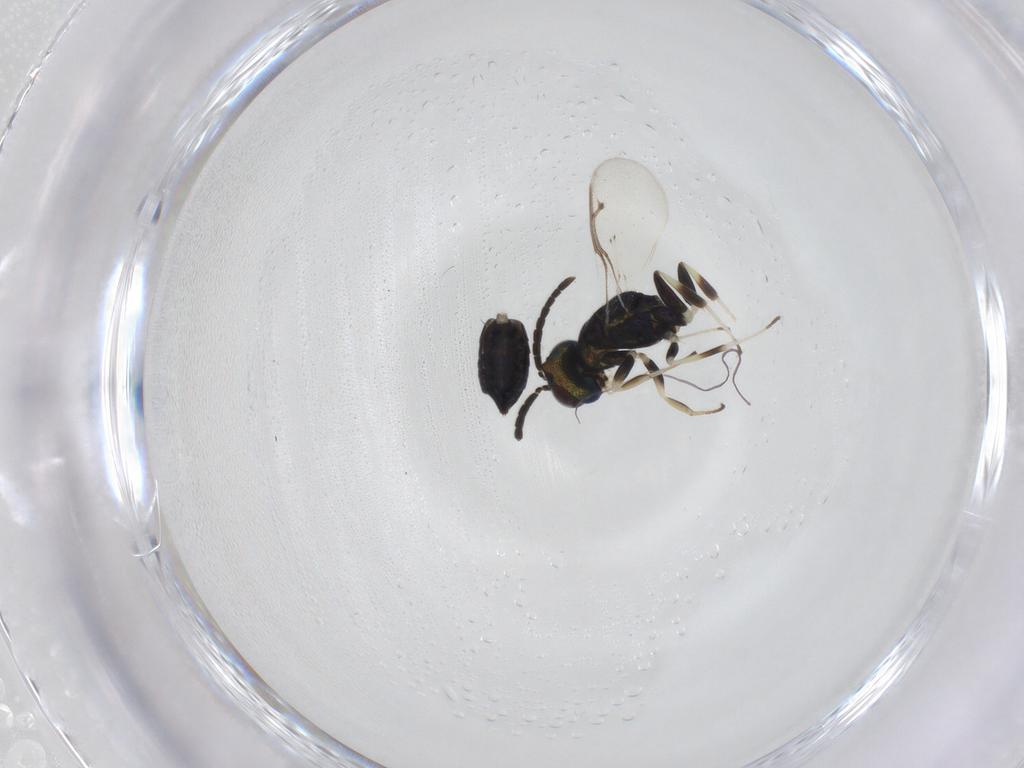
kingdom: Animalia
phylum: Arthropoda
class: Insecta
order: Hymenoptera
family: Eupelmidae
